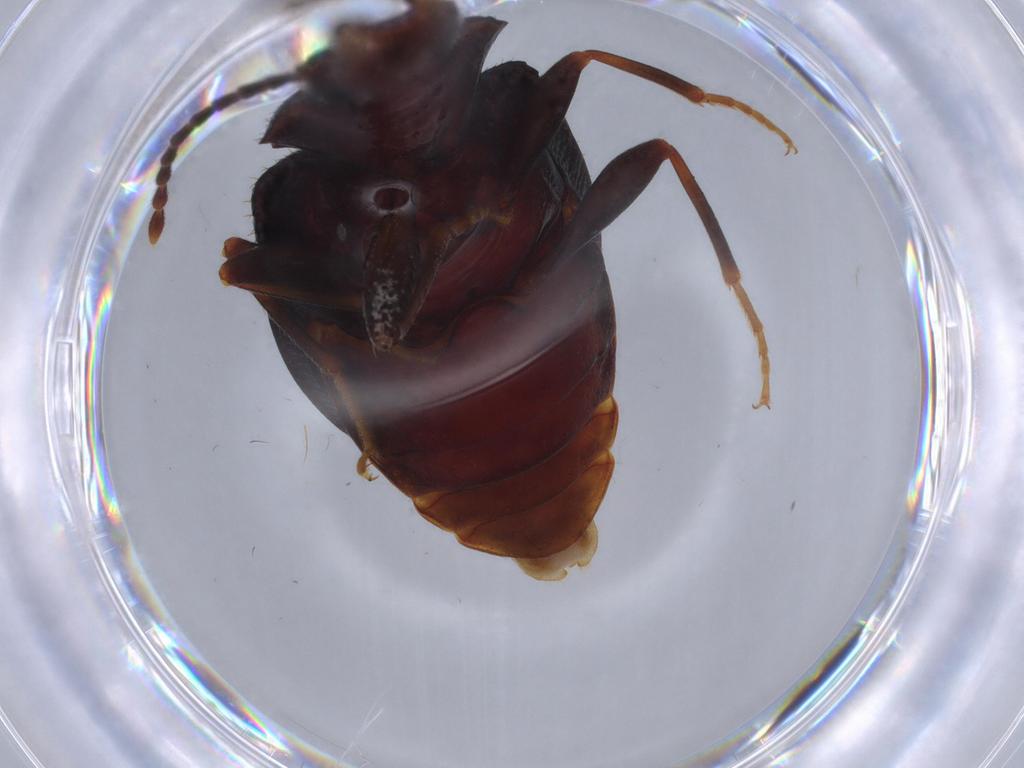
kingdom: Animalia
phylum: Arthropoda
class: Insecta
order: Coleoptera
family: Tenebrionidae
